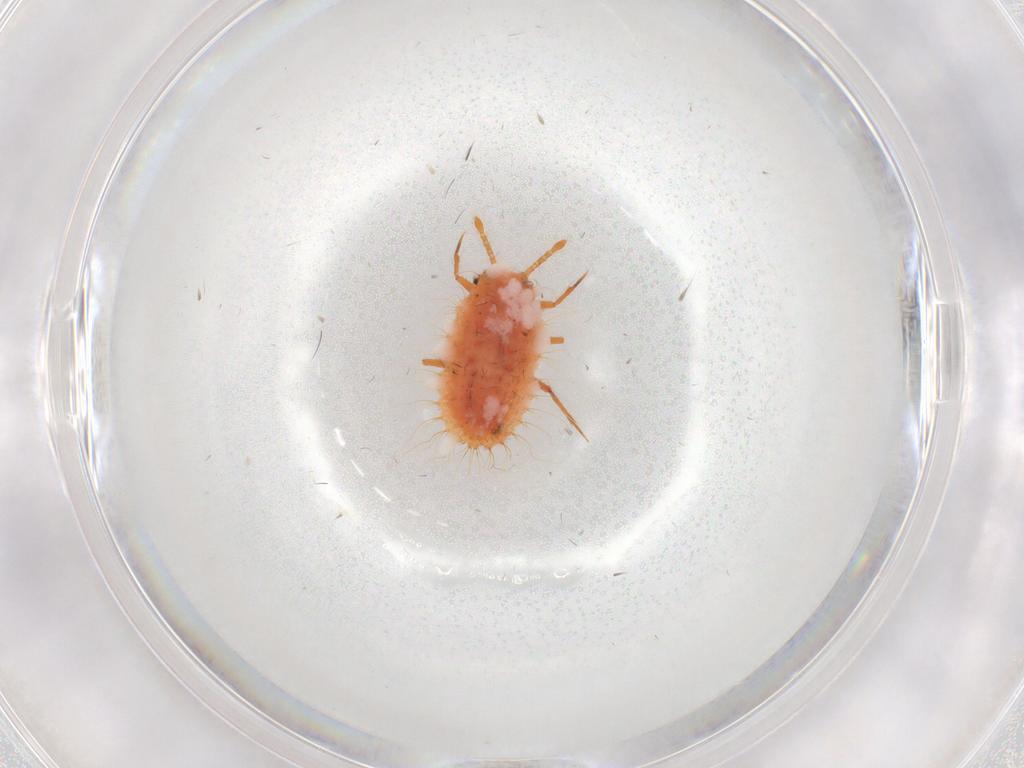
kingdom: Animalia
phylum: Arthropoda
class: Insecta
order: Hemiptera
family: Coccoidea_incertae_sedis
